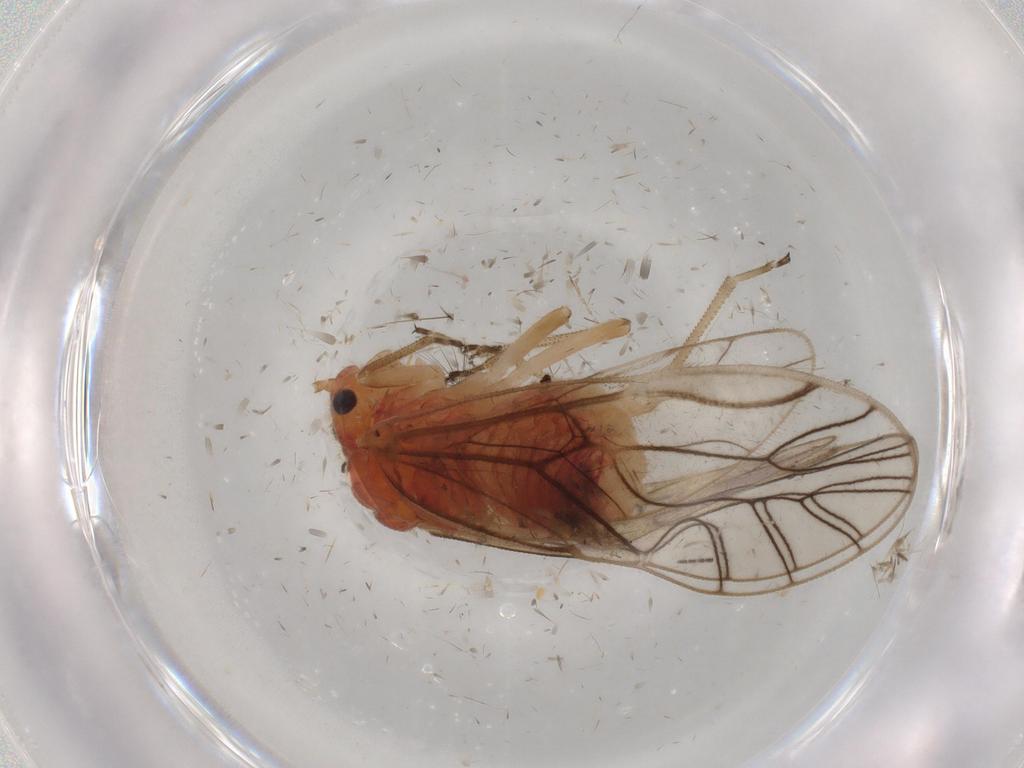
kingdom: Animalia
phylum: Arthropoda
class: Insecta
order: Psocodea
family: Amphipsocidae
